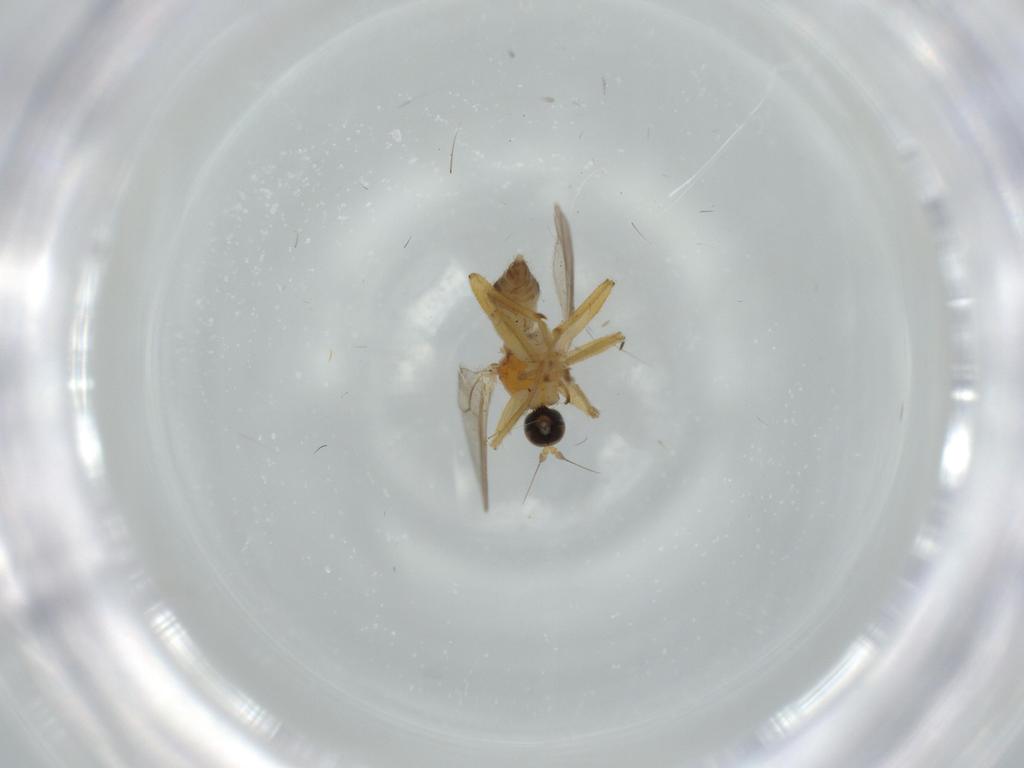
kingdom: Animalia
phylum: Arthropoda
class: Insecta
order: Diptera
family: Hybotidae
